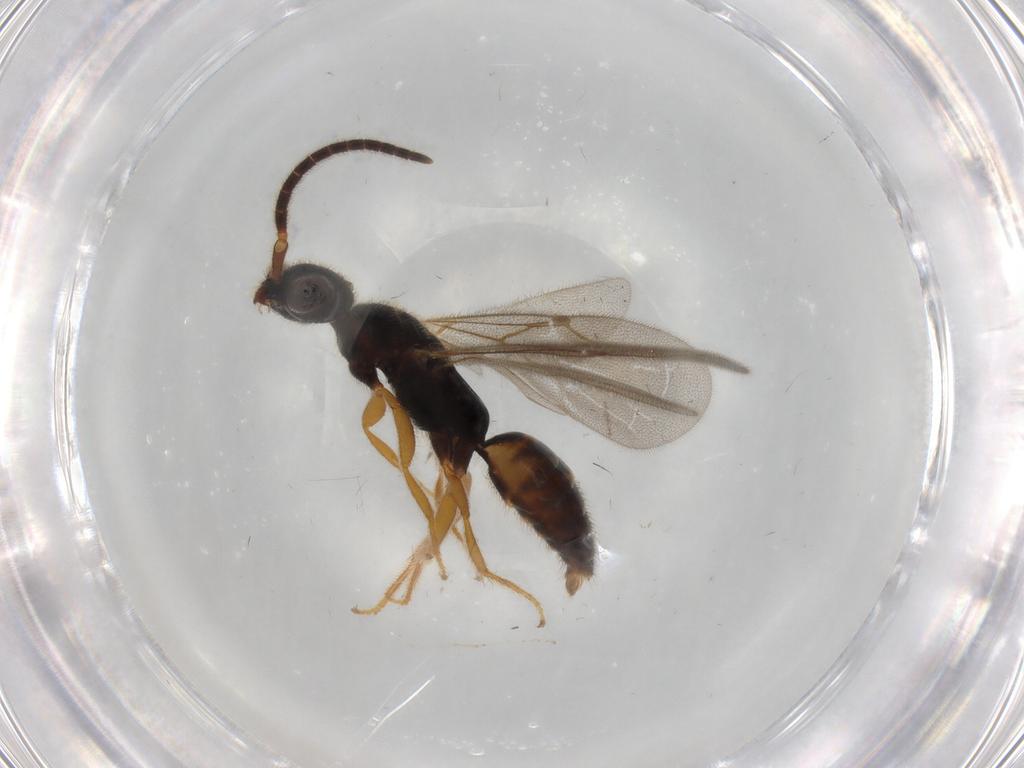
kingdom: Animalia
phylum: Arthropoda
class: Insecta
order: Hymenoptera
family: Bethylidae
